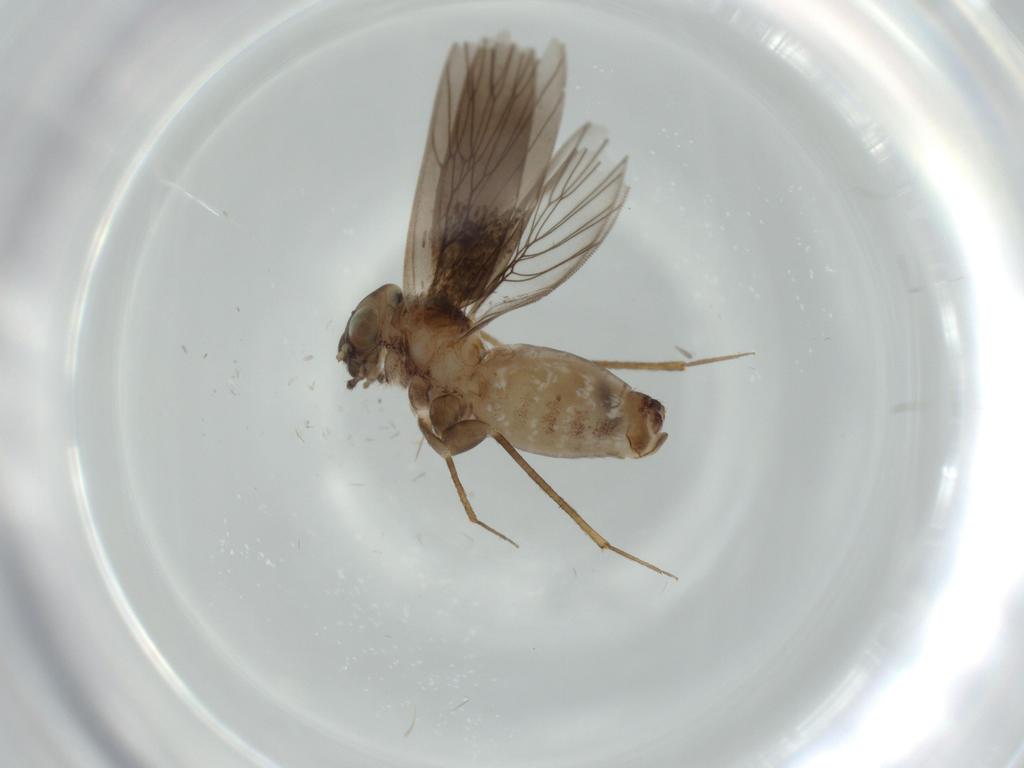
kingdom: Animalia
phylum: Arthropoda
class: Insecta
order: Psocodea
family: Lepidopsocidae
